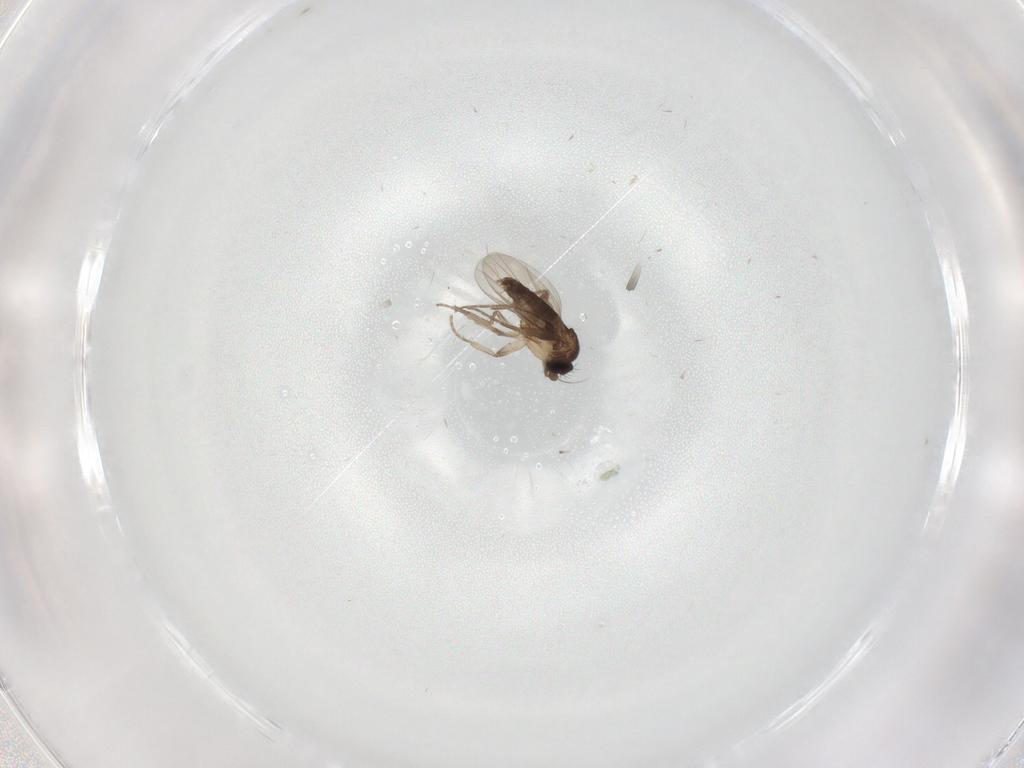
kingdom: Animalia
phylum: Arthropoda
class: Insecta
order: Diptera
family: Cecidomyiidae
